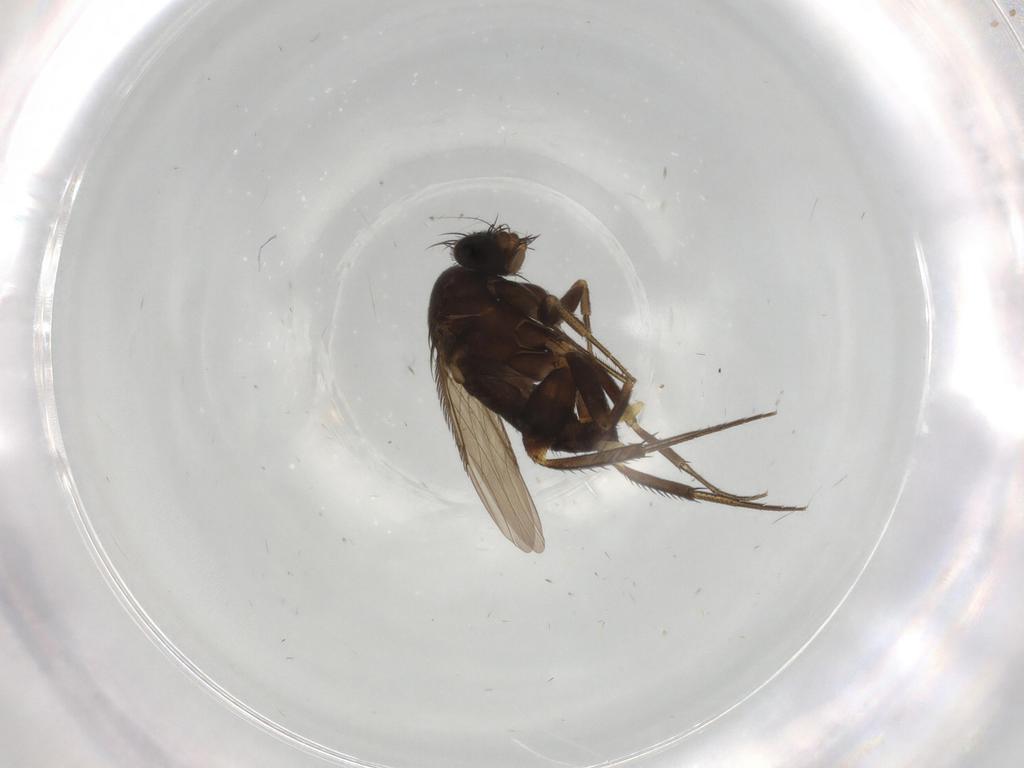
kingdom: Animalia
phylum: Arthropoda
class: Insecta
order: Diptera
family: Phoridae
